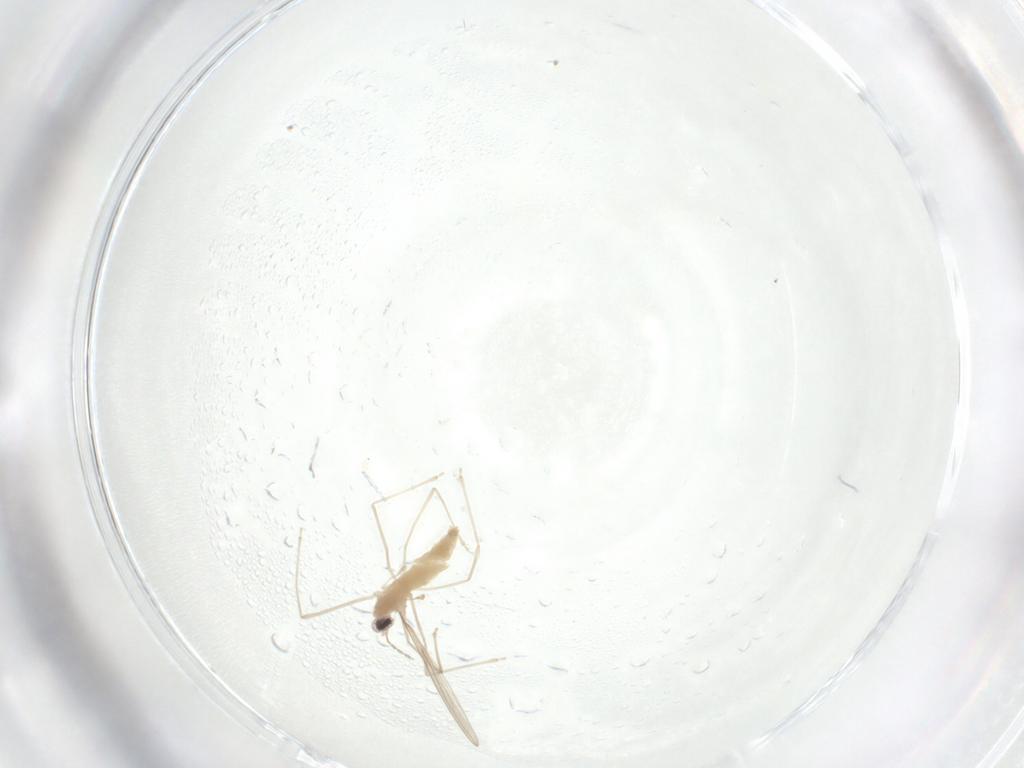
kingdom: Animalia
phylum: Arthropoda
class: Insecta
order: Diptera
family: Cecidomyiidae
